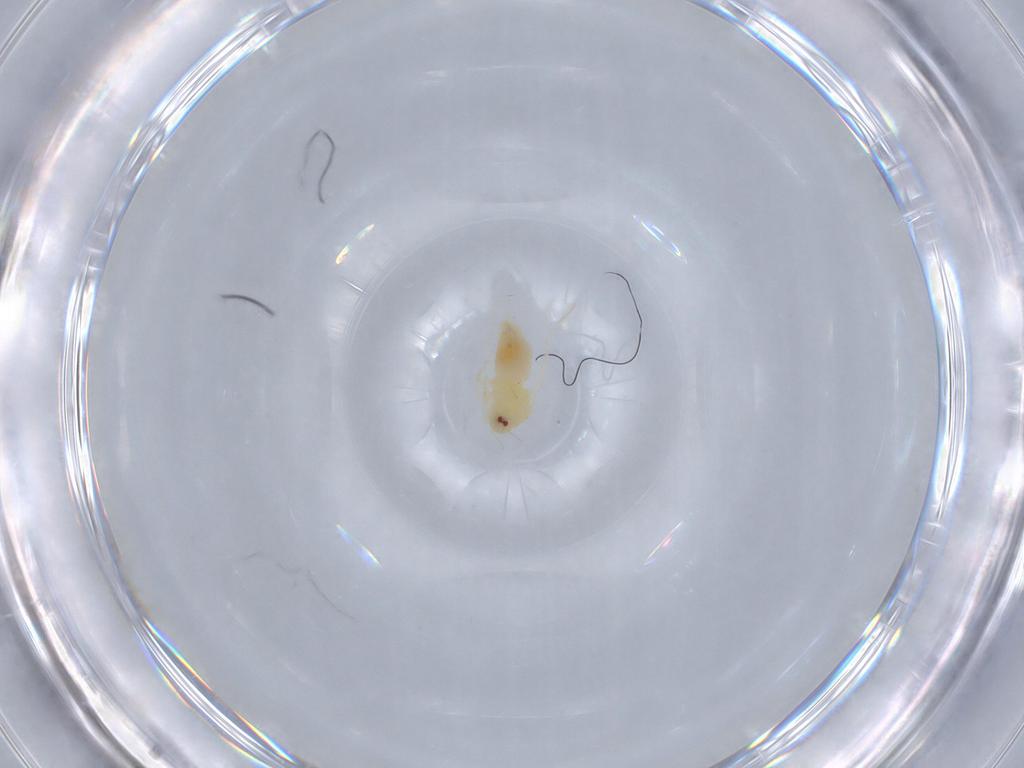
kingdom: Animalia
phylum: Arthropoda
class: Insecta
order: Hemiptera
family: Aleyrodidae
